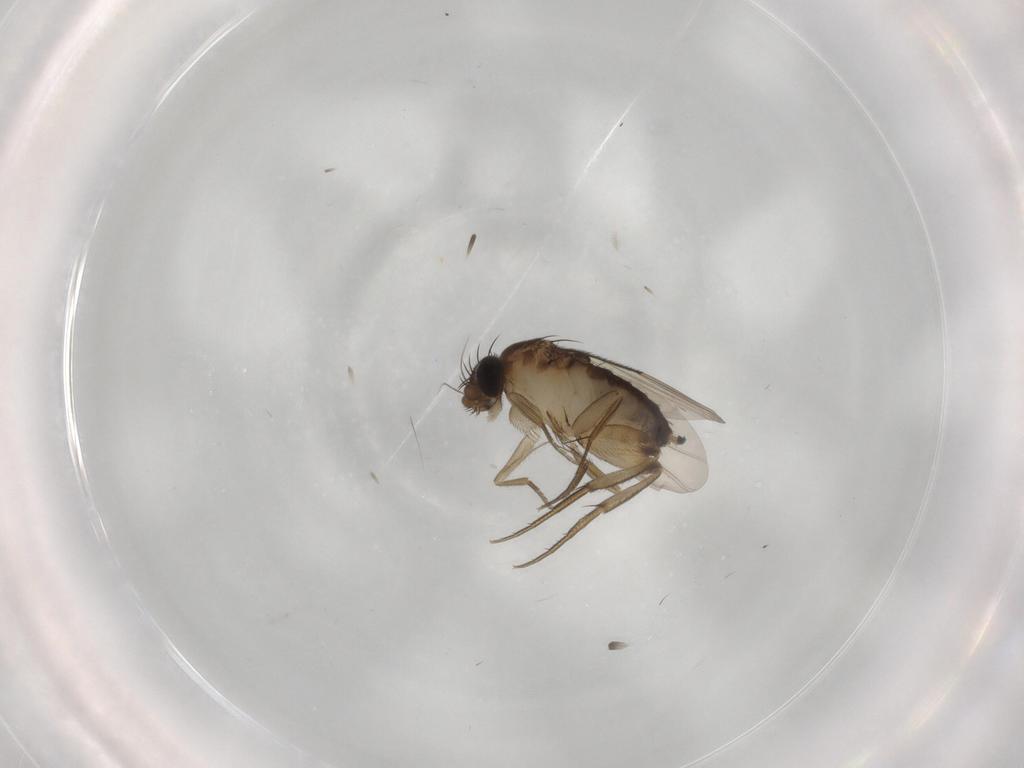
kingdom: Animalia
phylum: Arthropoda
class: Insecta
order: Diptera
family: Phoridae
